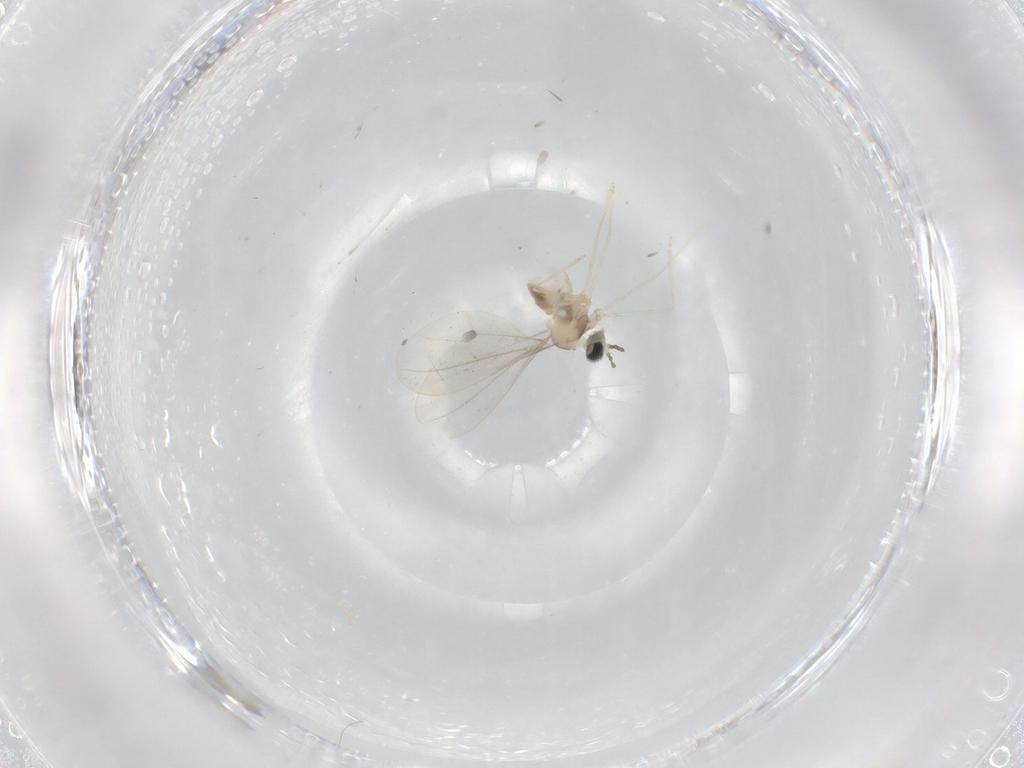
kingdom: Animalia
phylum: Arthropoda
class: Insecta
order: Diptera
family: Cecidomyiidae
